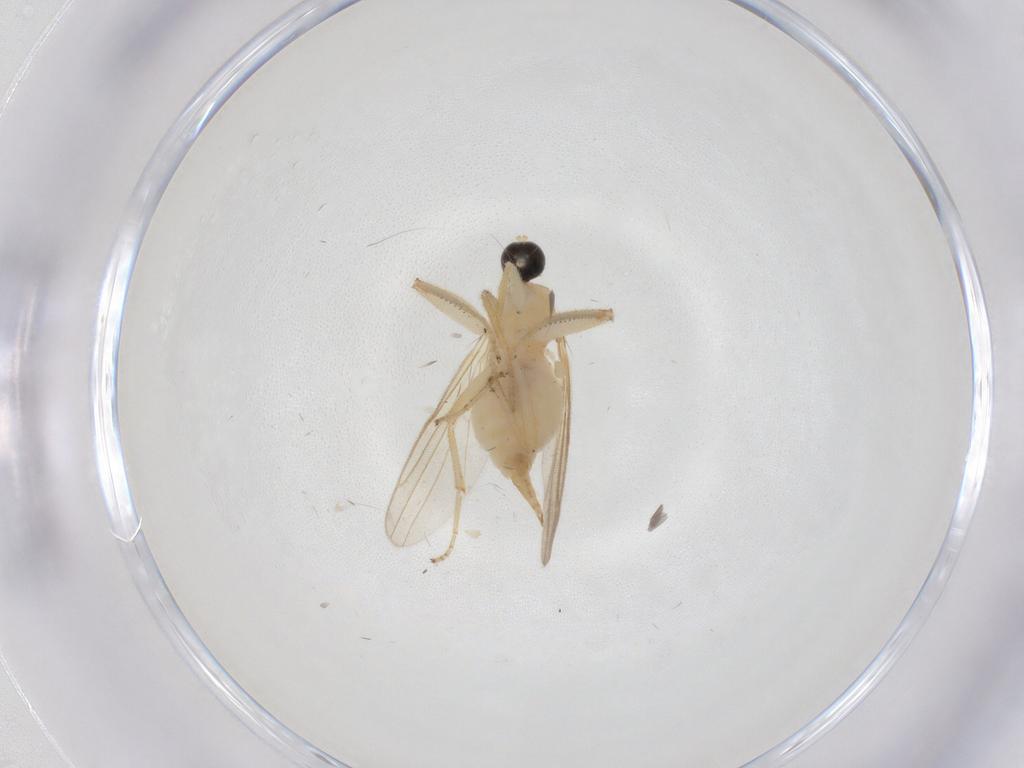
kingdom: Animalia
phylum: Arthropoda
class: Insecta
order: Diptera
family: Hybotidae
